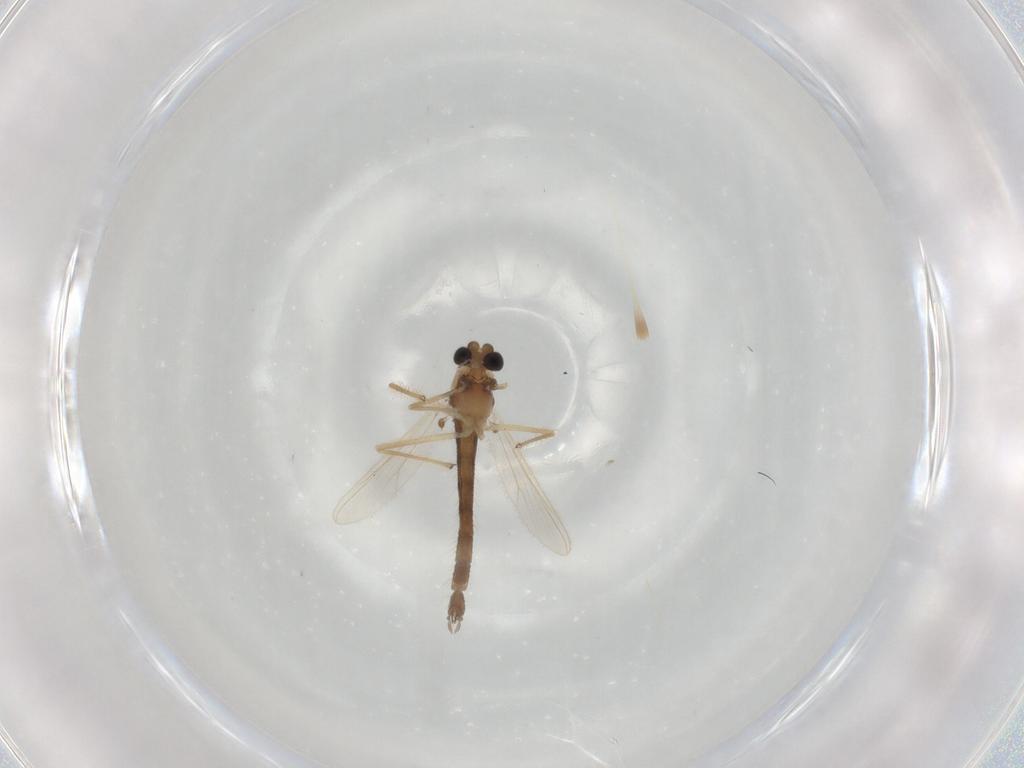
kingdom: Animalia
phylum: Arthropoda
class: Insecta
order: Diptera
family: Chironomidae
